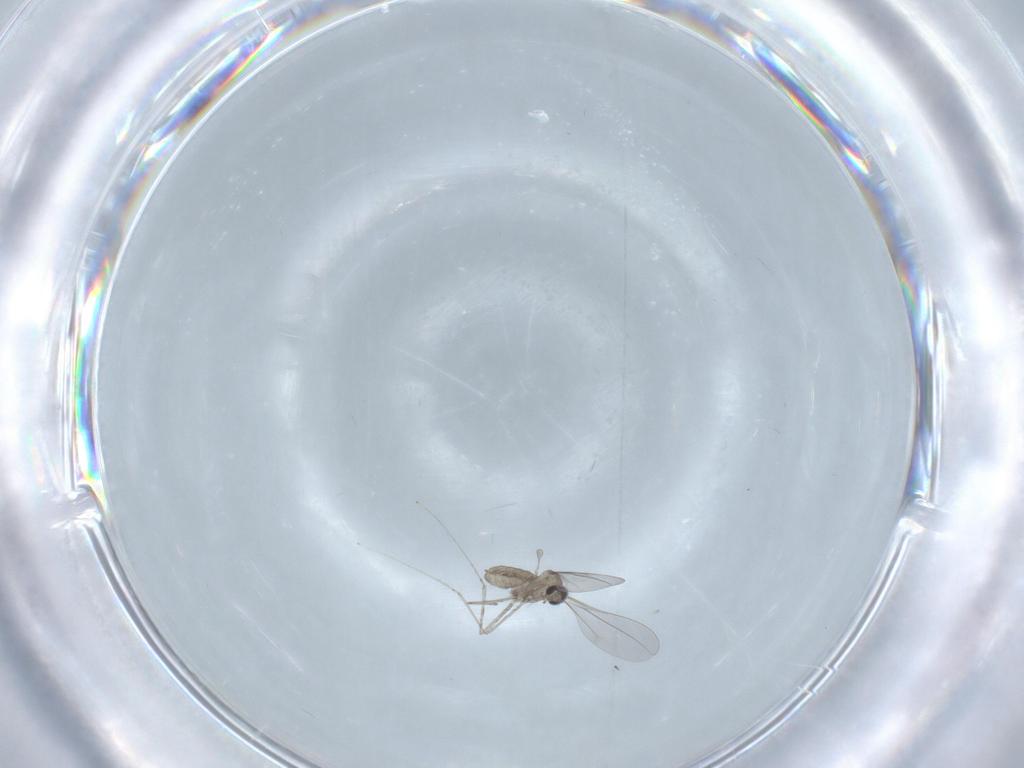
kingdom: Animalia
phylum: Arthropoda
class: Insecta
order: Diptera
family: Cecidomyiidae
